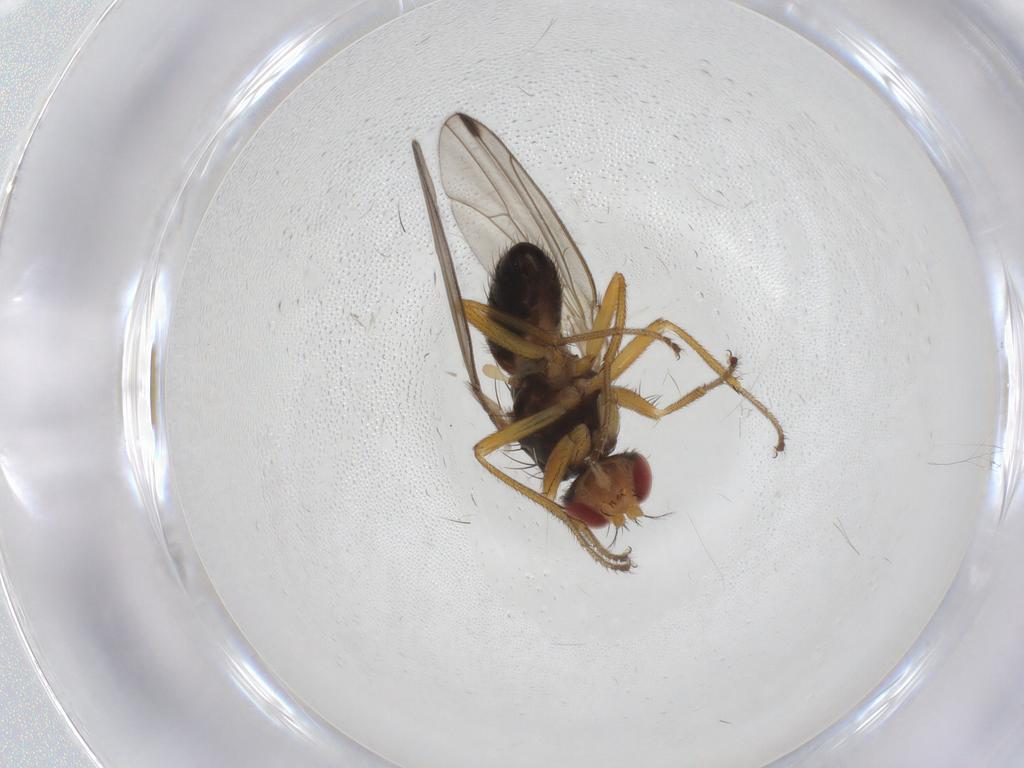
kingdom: Animalia
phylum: Arthropoda
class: Insecta
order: Diptera
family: Drosophilidae
